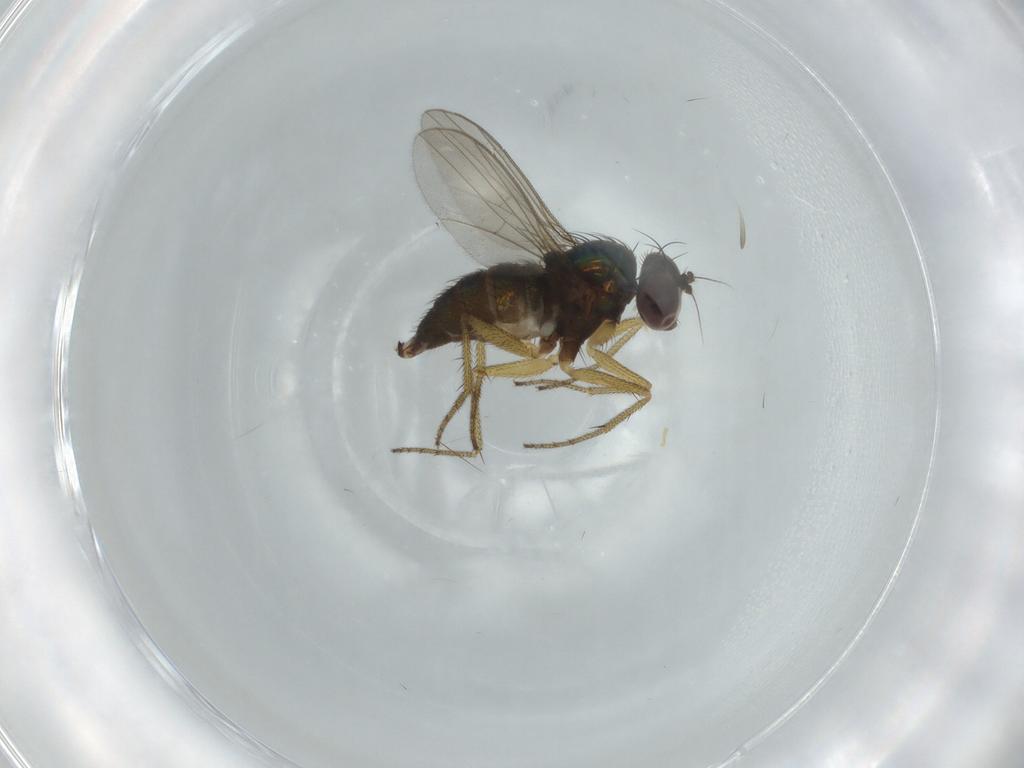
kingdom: Animalia
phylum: Arthropoda
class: Insecta
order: Diptera
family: Dolichopodidae
